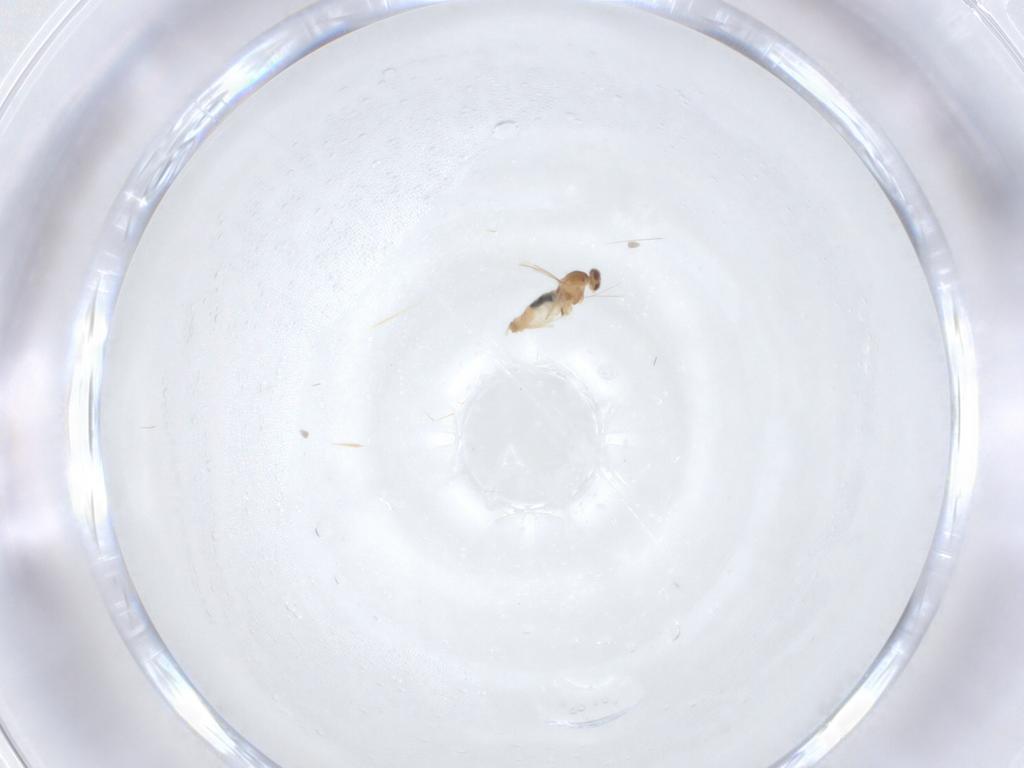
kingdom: Animalia
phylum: Arthropoda
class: Insecta
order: Diptera
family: Cecidomyiidae
